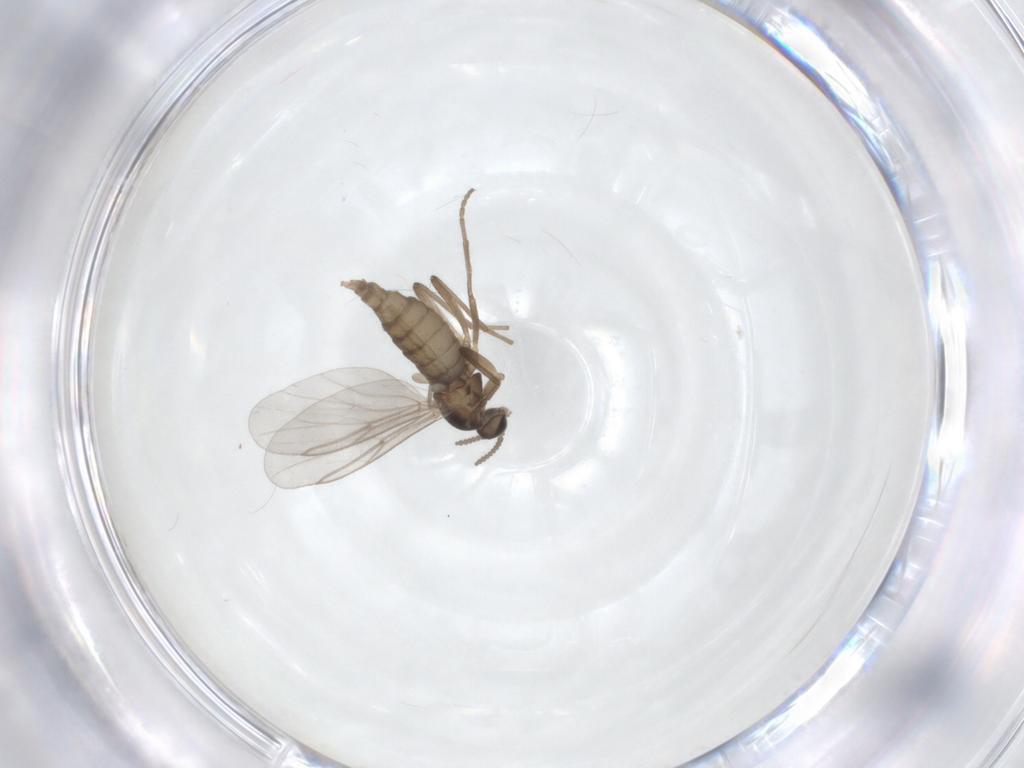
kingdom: Animalia
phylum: Arthropoda
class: Insecta
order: Diptera
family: Cecidomyiidae
